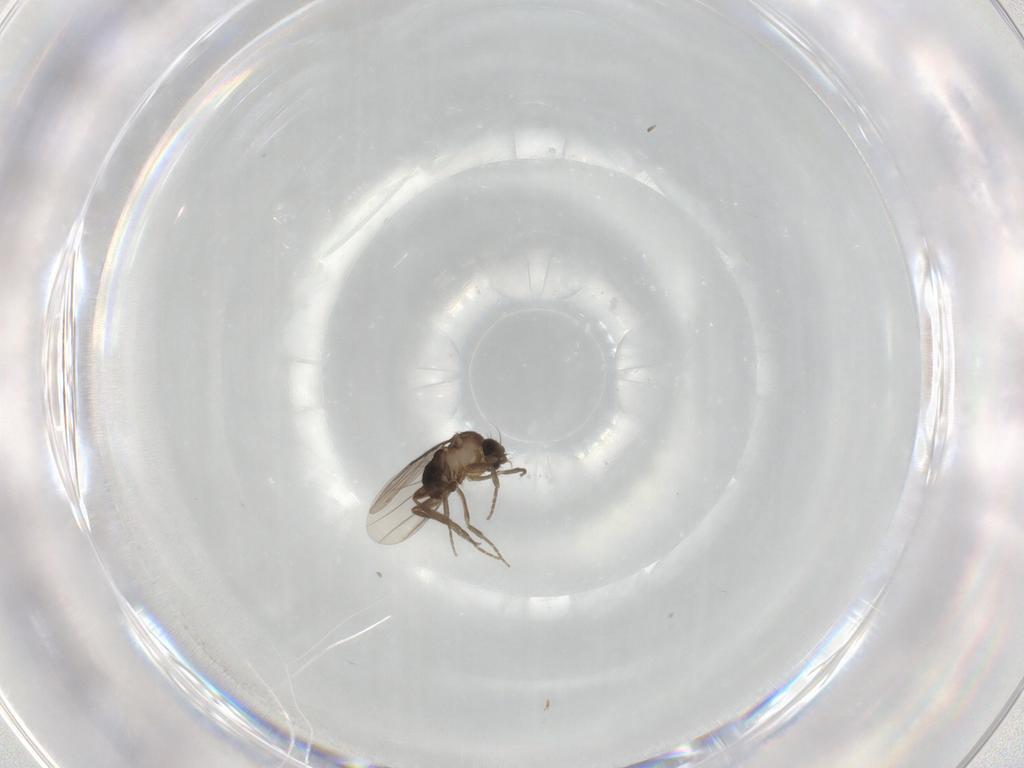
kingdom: Animalia
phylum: Arthropoda
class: Insecta
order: Diptera
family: Phoridae
